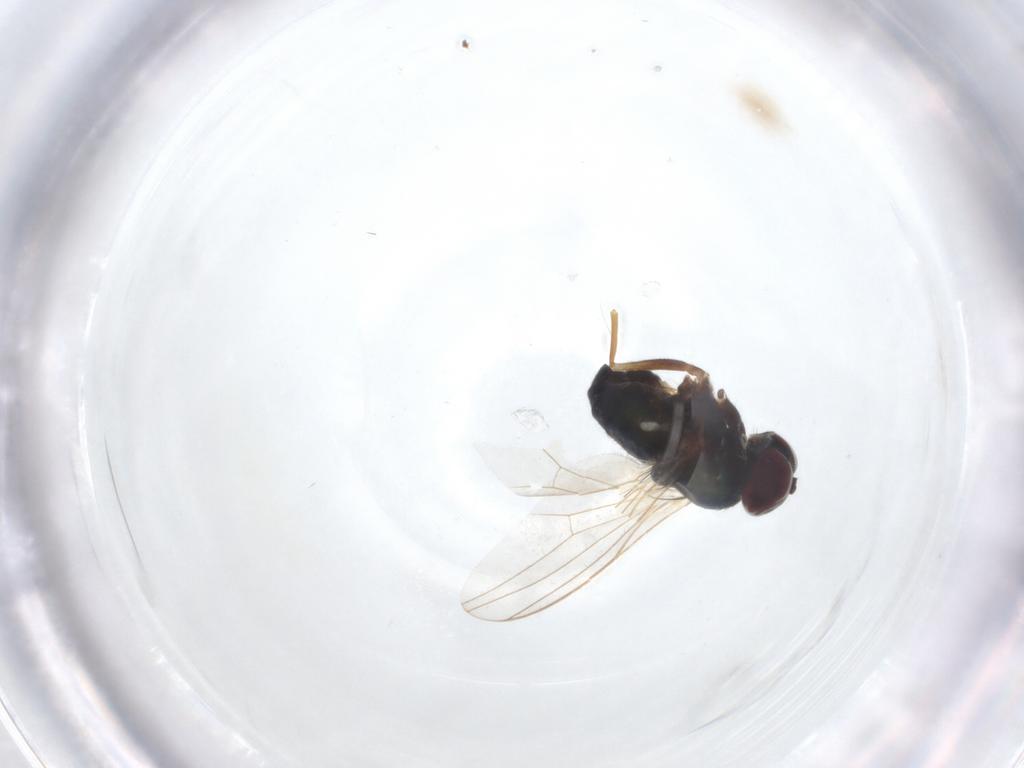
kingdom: Animalia
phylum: Arthropoda
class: Insecta
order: Diptera
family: Dolichopodidae
